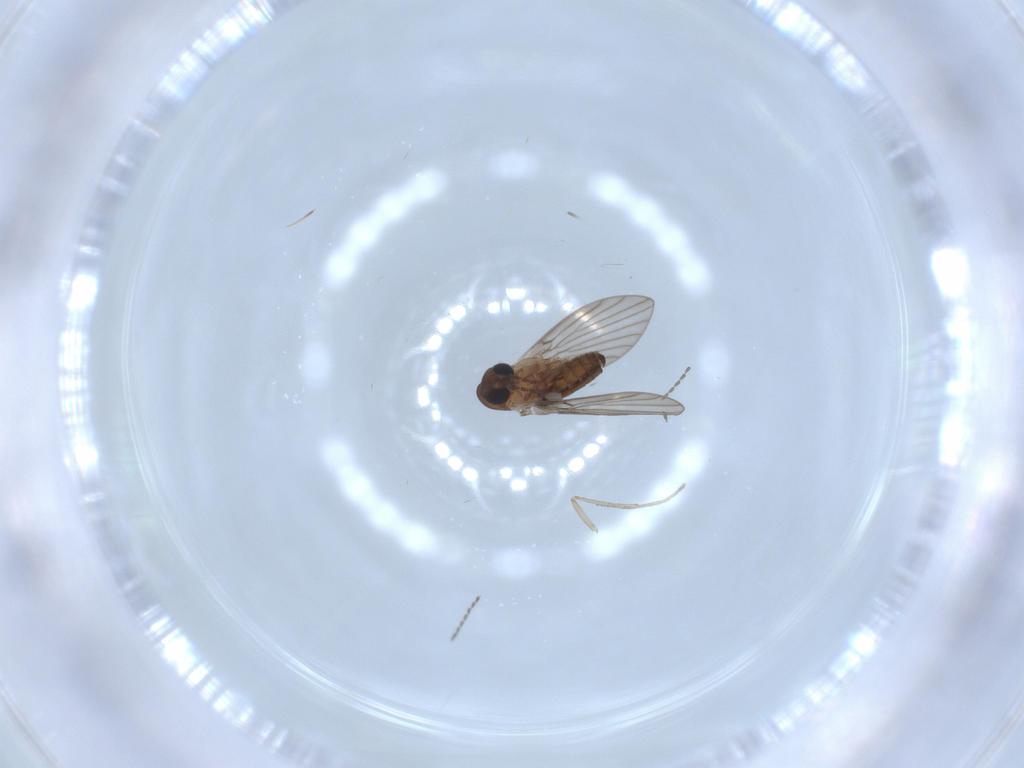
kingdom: Animalia
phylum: Arthropoda
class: Insecta
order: Diptera
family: Psychodidae
